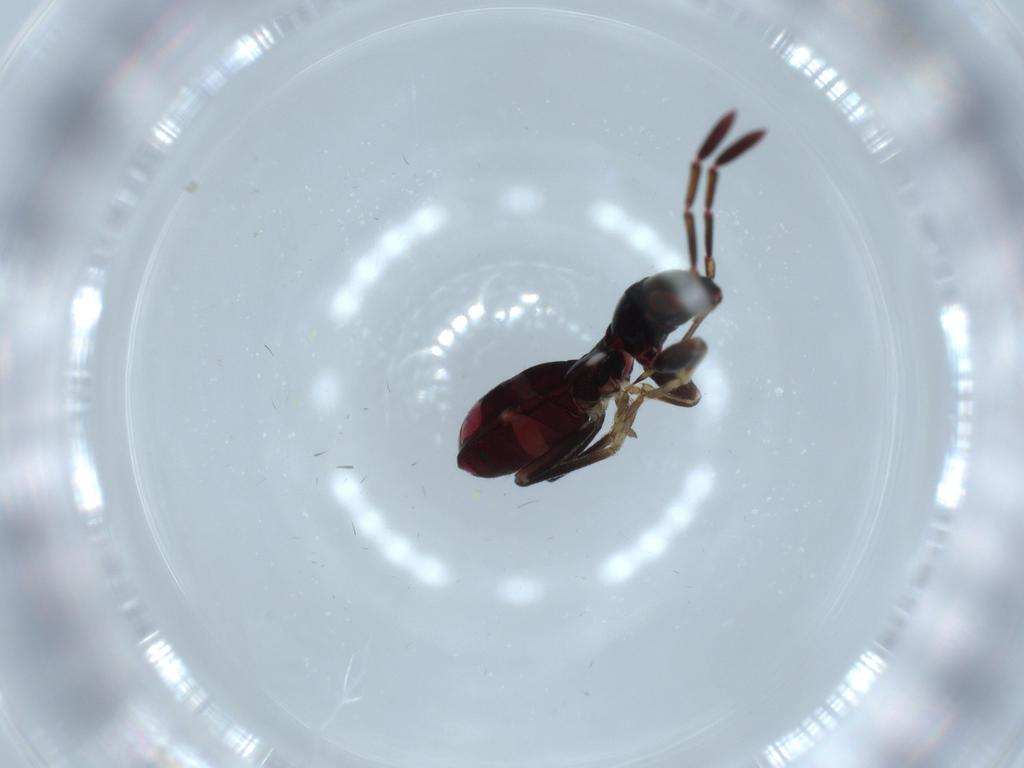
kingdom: Animalia
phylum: Arthropoda
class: Insecta
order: Hemiptera
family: Rhyparochromidae
